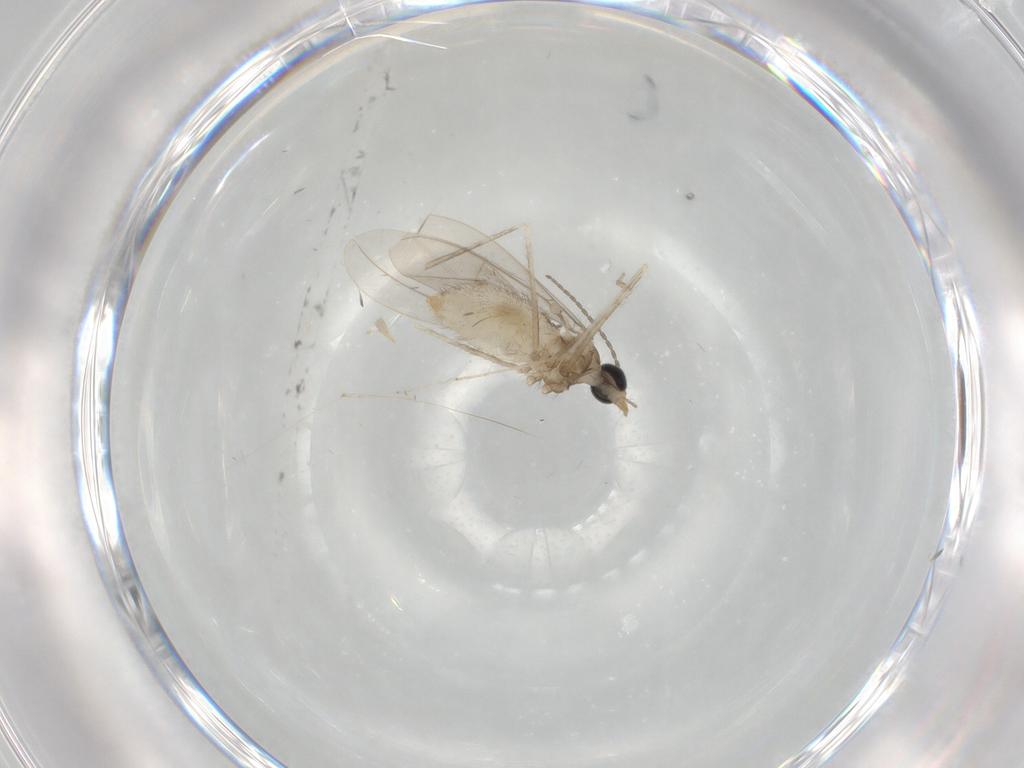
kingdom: Animalia
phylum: Arthropoda
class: Insecta
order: Diptera
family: Cecidomyiidae
